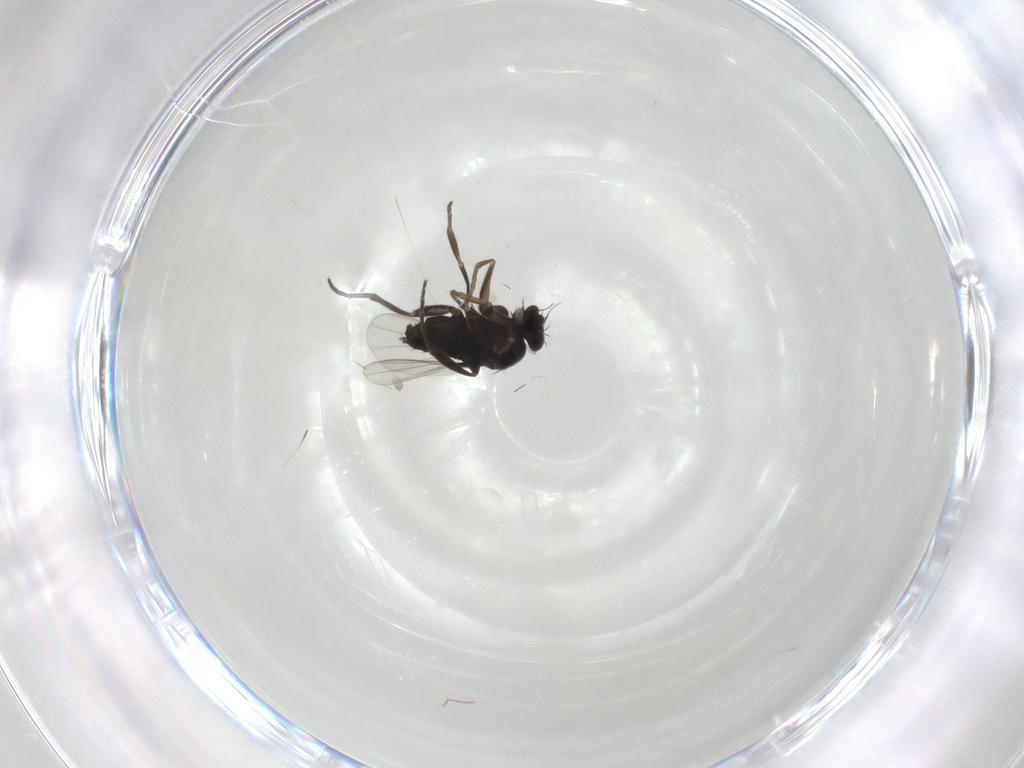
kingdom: Animalia
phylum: Arthropoda
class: Insecta
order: Diptera
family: Phoridae
